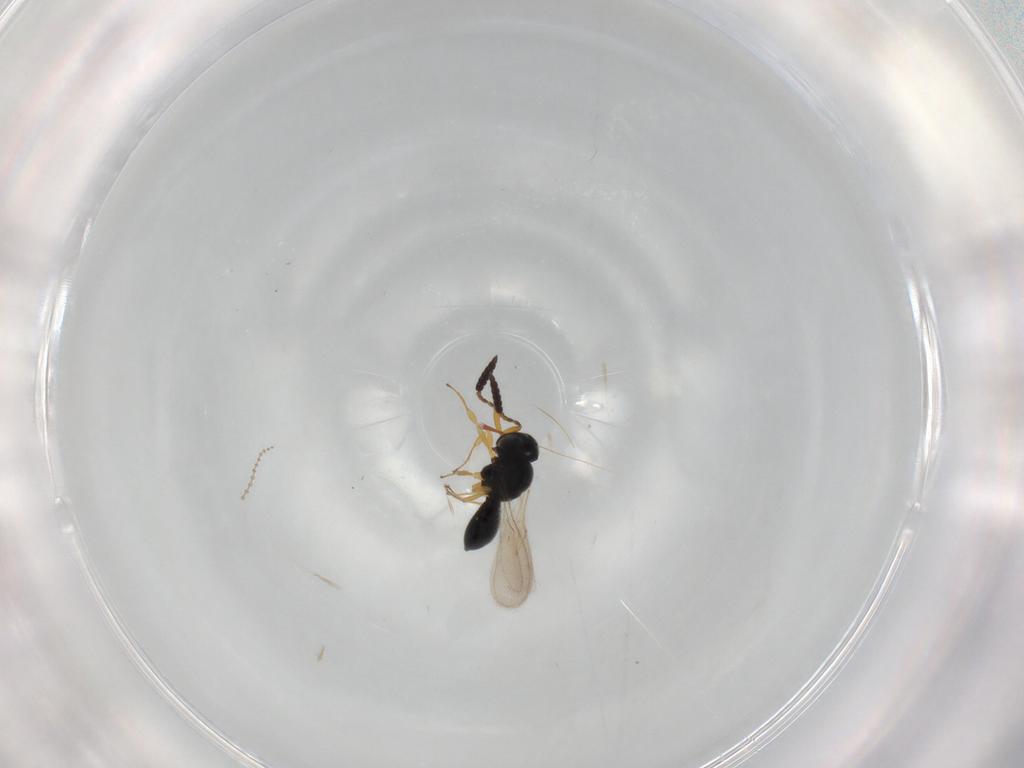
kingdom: Animalia
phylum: Arthropoda
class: Insecta
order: Hymenoptera
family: Scelionidae
